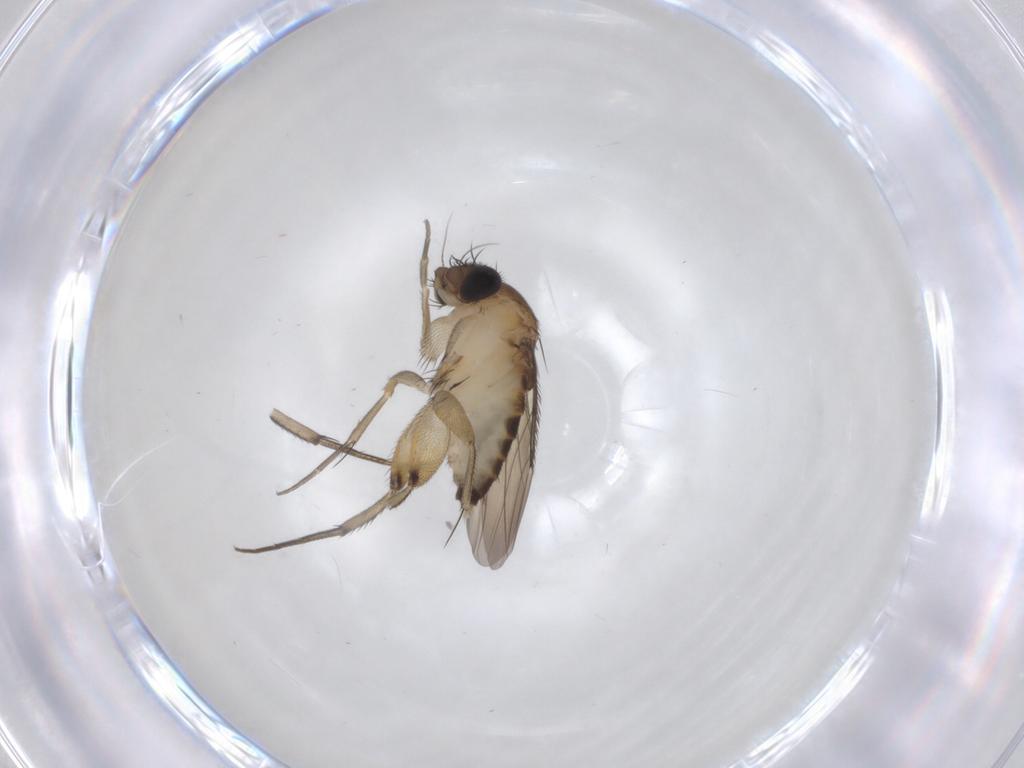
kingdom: Animalia
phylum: Arthropoda
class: Insecta
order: Diptera
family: Phoridae
